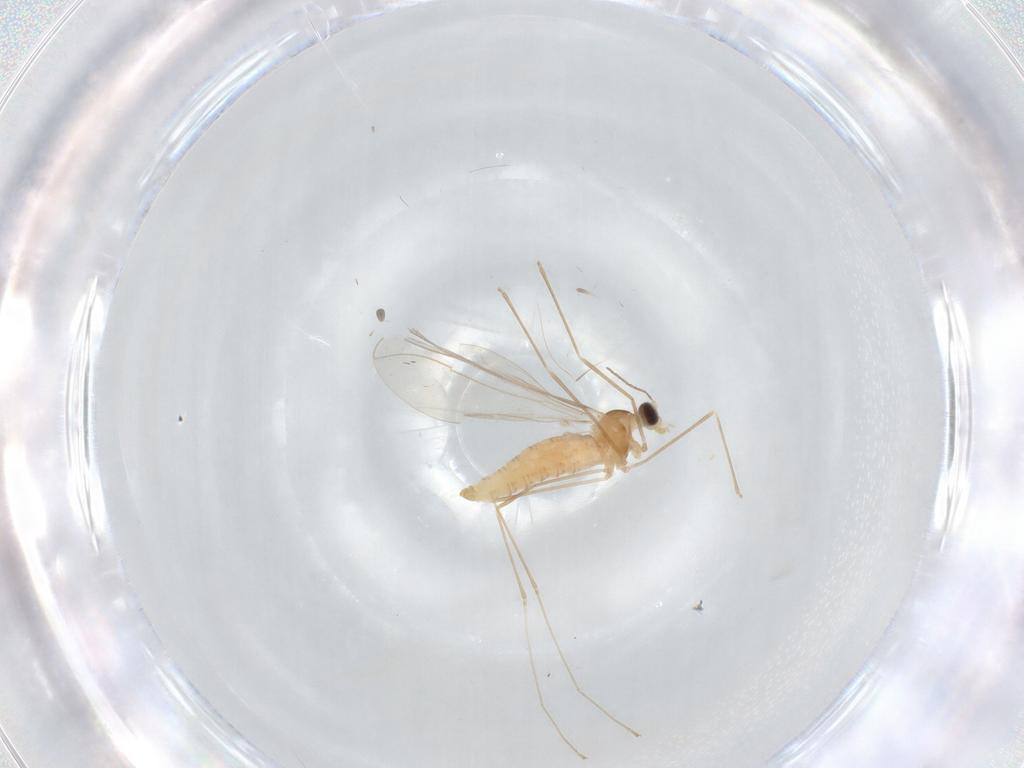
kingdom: Animalia
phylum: Arthropoda
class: Insecta
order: Diptera
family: Cecidomyiidae
